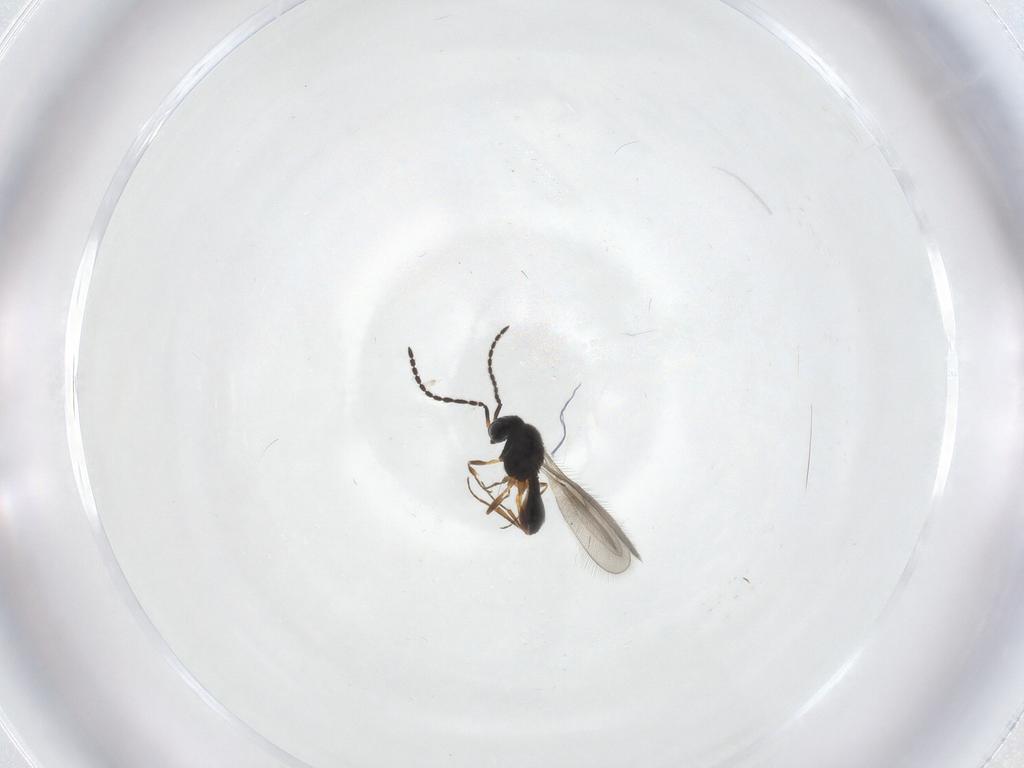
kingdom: Animalia
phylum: Arthropoda
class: Insecta
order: Hymenoptera
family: Scelionidae
